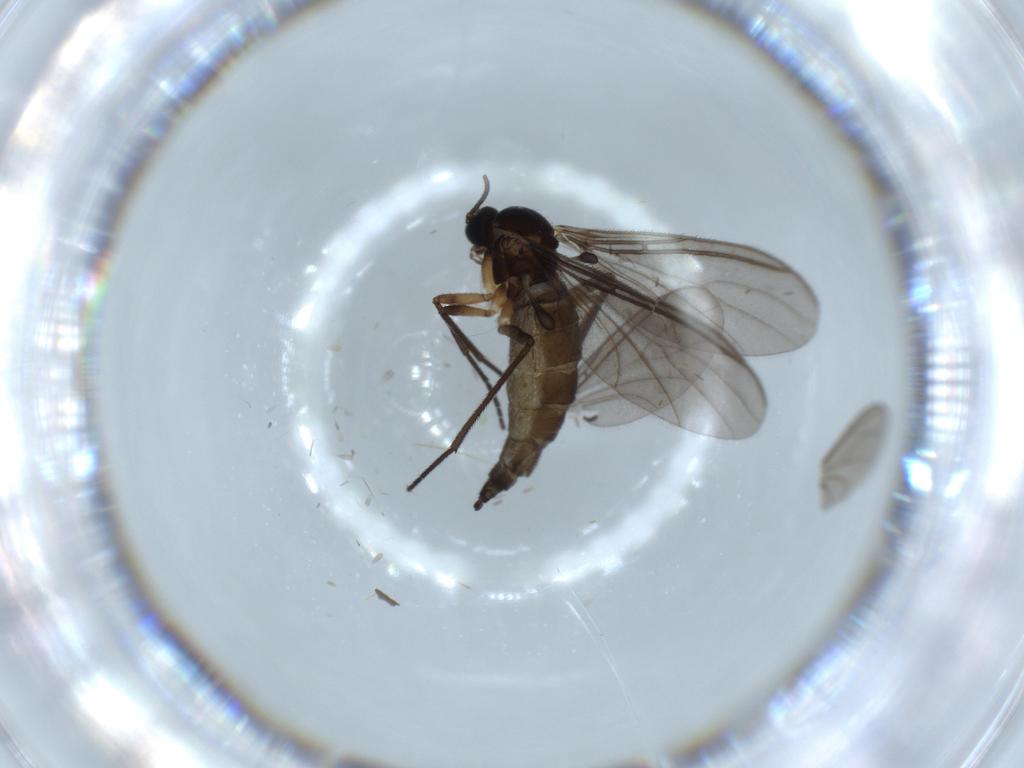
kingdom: Animalia
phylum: Arthropoda
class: Insecta
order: Diptera
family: Sciaridae
